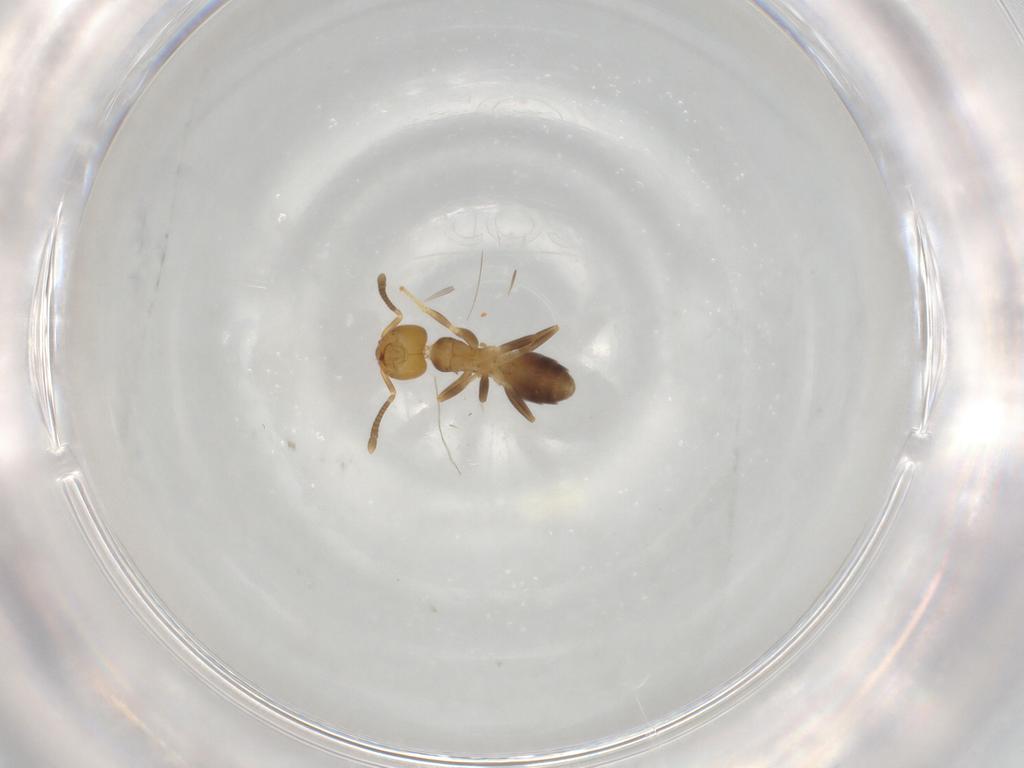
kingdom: Animalia
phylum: Arthropoda
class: Insecta
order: Hymenoptera
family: Formicidae
